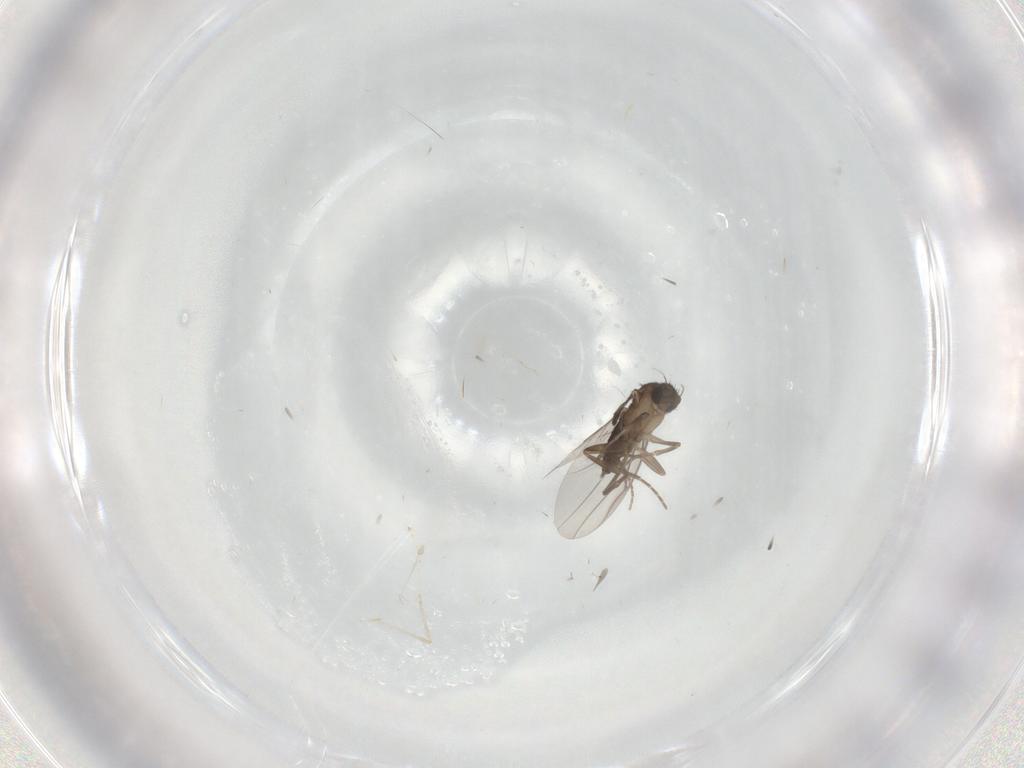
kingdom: Animalia
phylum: Arthropoda
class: Insecta
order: Diptera
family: Phoridae
